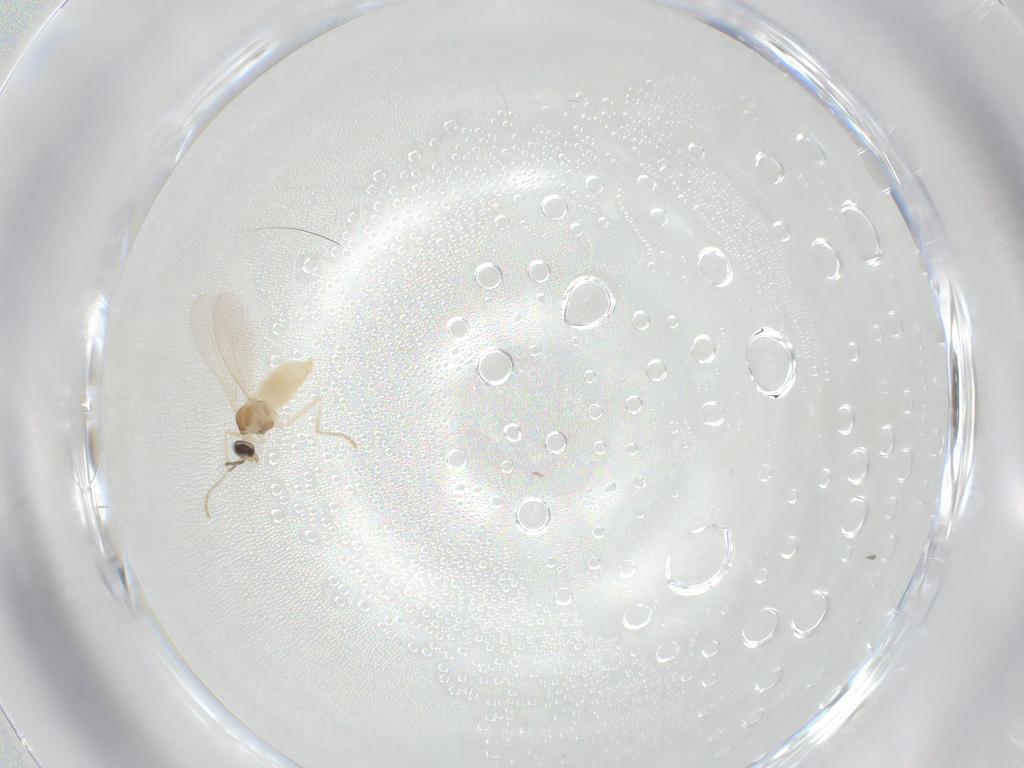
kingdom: Animalia
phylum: Arthropoda
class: Insecta
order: Diptera
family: Cecidomyiidae
